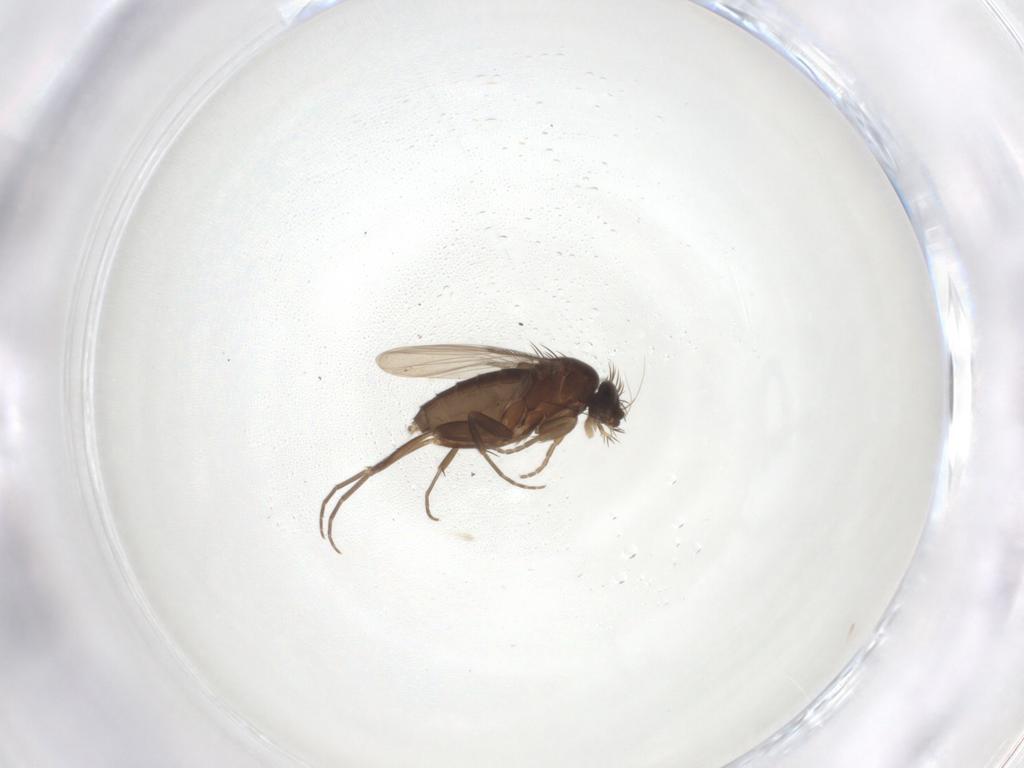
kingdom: Animalia
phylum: Arthropoda
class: Insecta
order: Diptera
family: Phoridae
